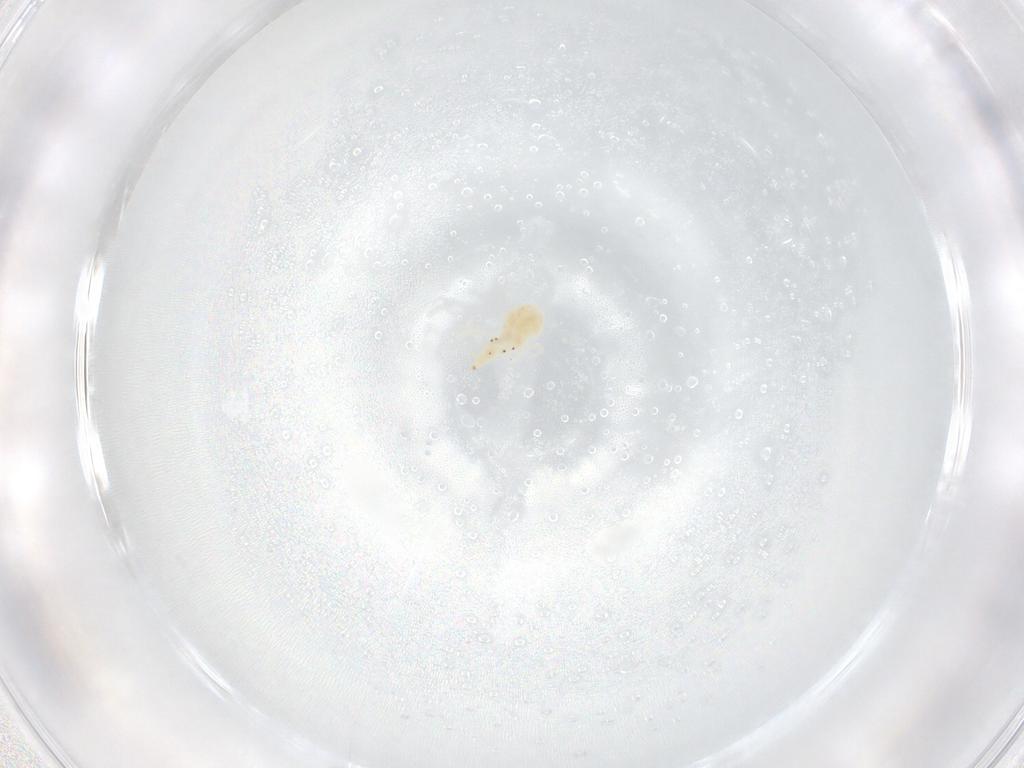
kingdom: Animalia
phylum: Arthropoda
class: Arachnida
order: Trombidiformes
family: Bdellidae
